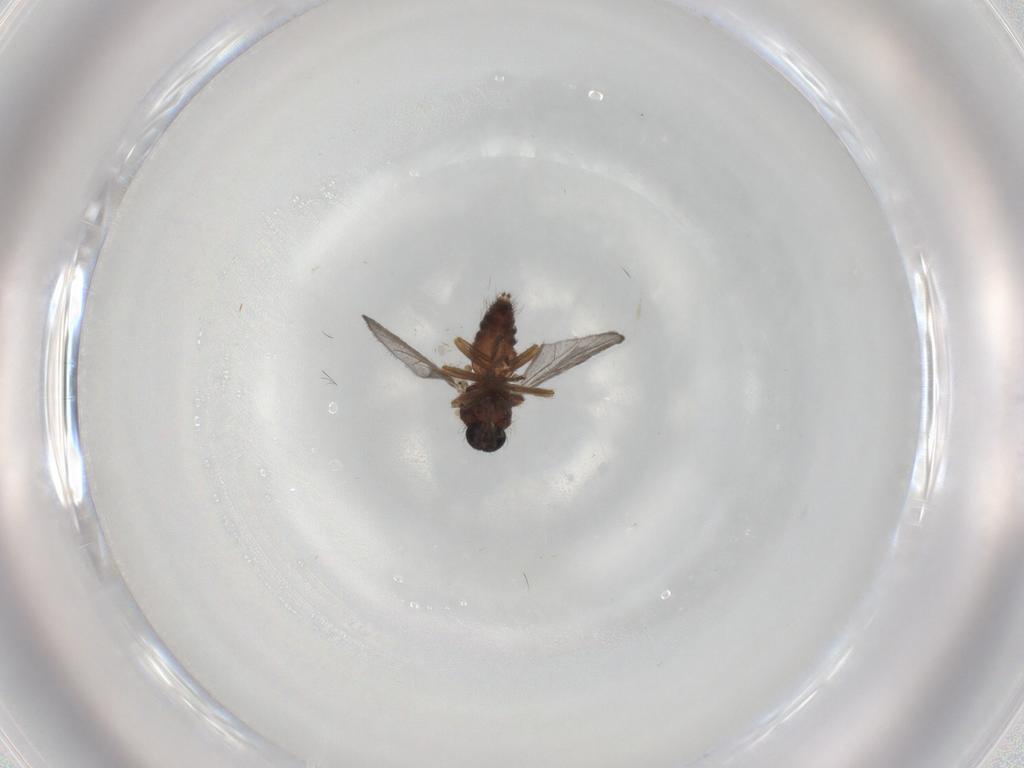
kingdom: Animalia
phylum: Arthropoda
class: Insecta
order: Diptera
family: Ceratopogonidae
